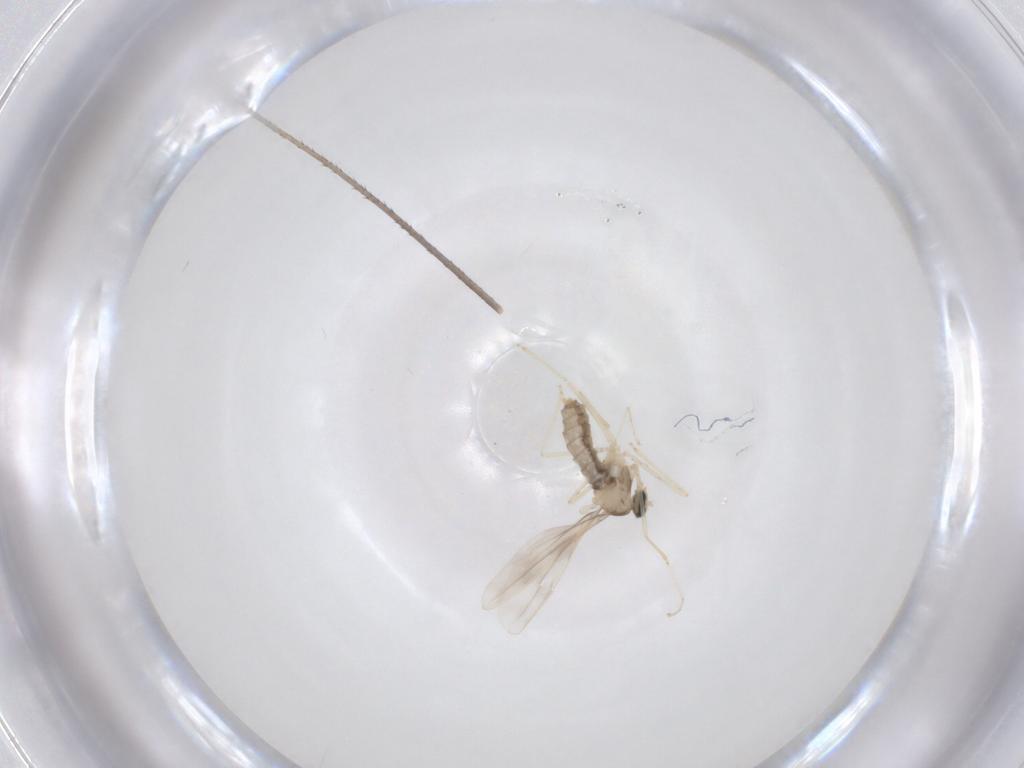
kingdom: Animalia
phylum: Arthropoda
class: Insecta
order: Diptera
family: Cecidomyiidae
